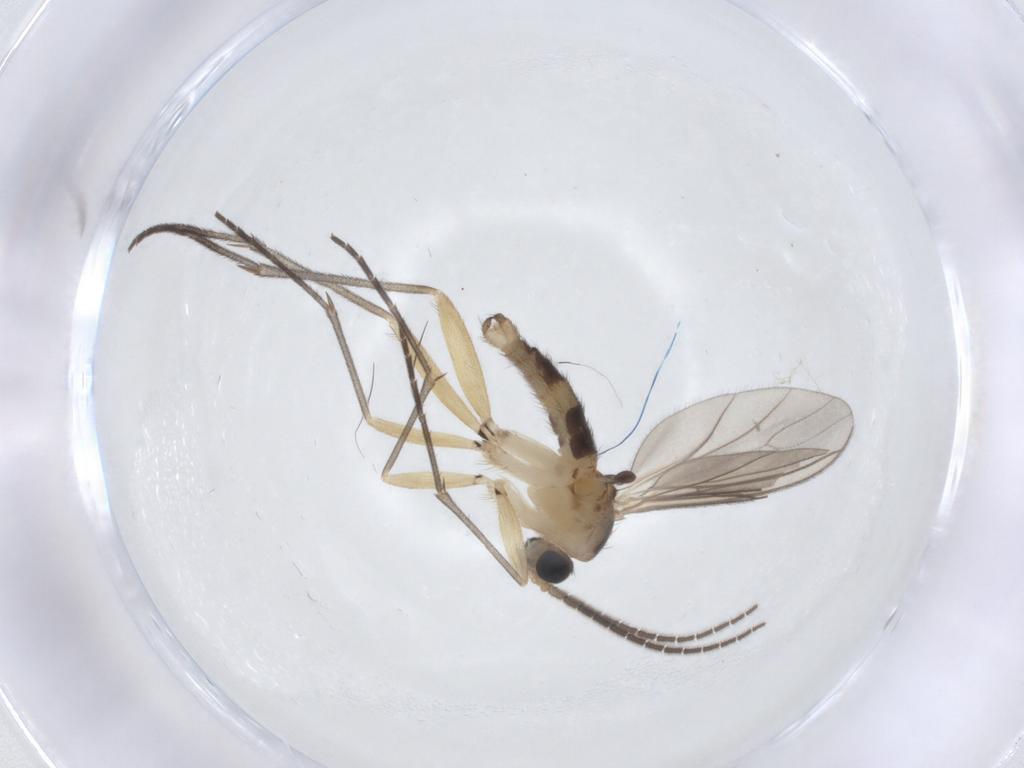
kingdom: Animalia
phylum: Arthropoda
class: Insecta
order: Diptera
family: Sciaridae
